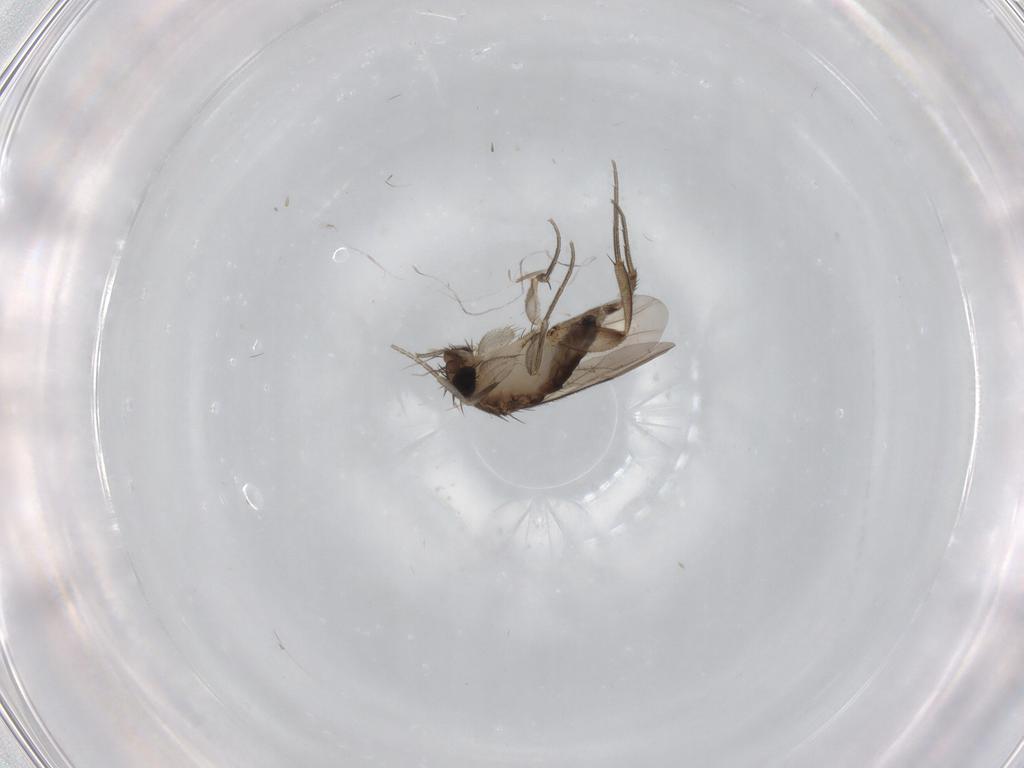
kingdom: Animalia
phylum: Arthropoda
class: Insecta
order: Diptera
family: Phoridae
